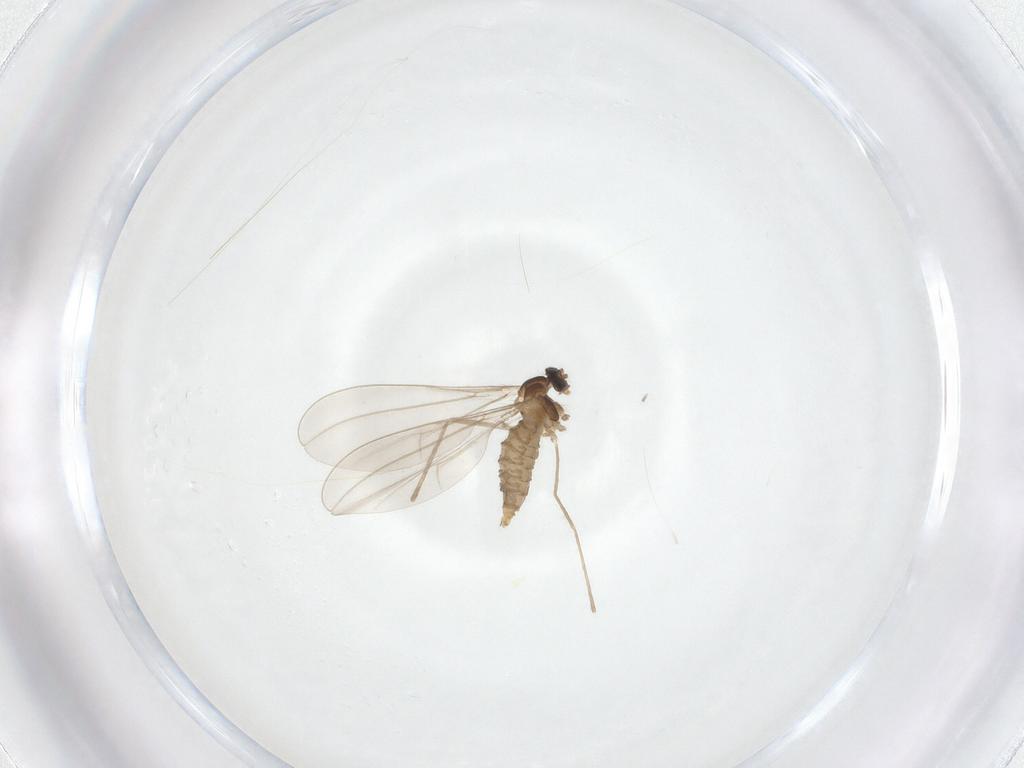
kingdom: Animalia
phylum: Arthropoda
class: Insecta
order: Diptera
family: Cecidomyiidae
